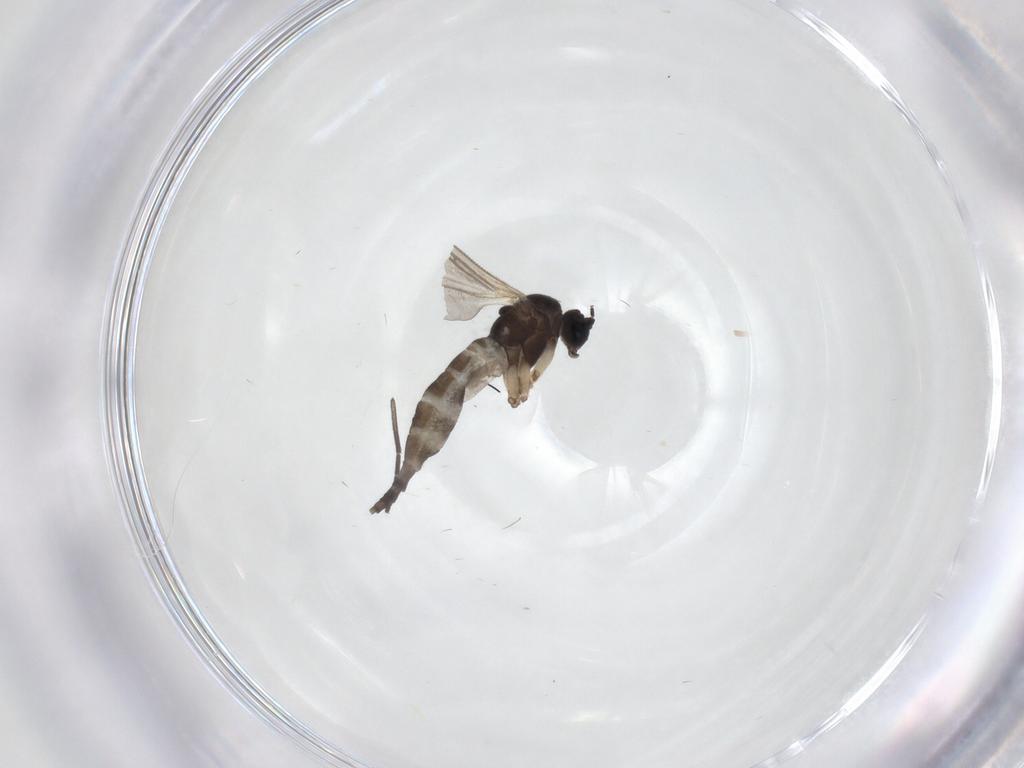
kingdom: Animalia
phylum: Arthropoda
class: Insecta
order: Diptera
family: Sciaridae
